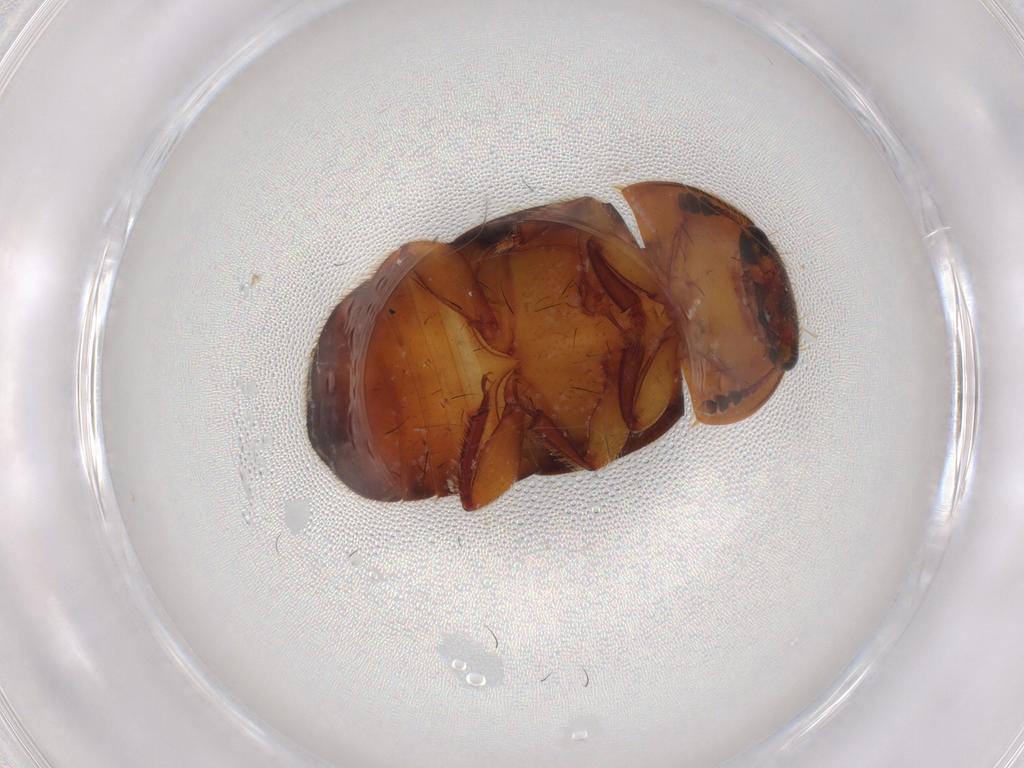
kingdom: Animalia
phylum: Arthropoda
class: Insecta
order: Coleoptera
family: Nitidulidae
